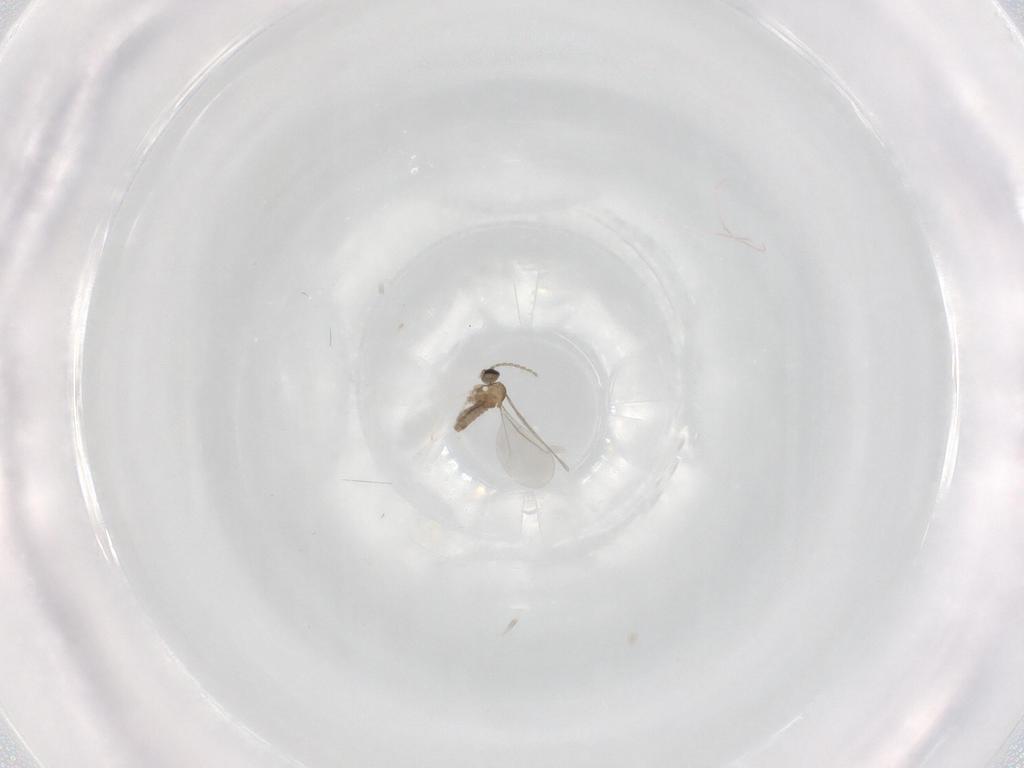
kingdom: Animalia
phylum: Arthropoda
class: Insecta
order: Diptera
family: Cecidomyiidae
